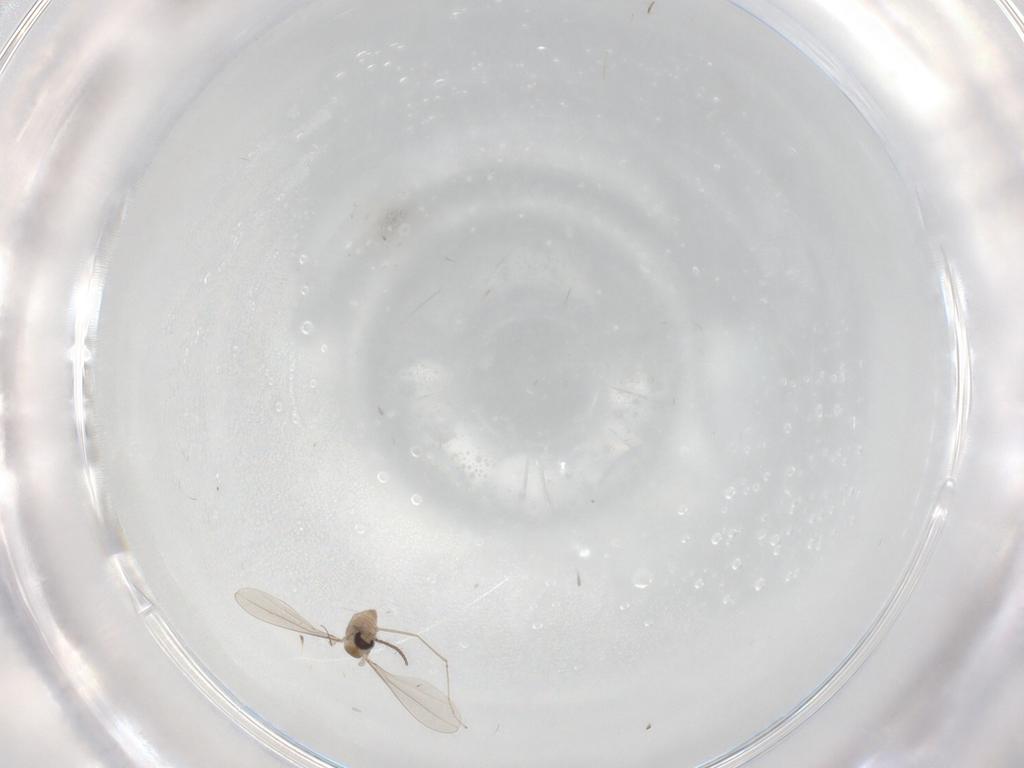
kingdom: Animalia
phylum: Arthropoda
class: Insecta
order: Diptera
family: Cecidomyiidae
